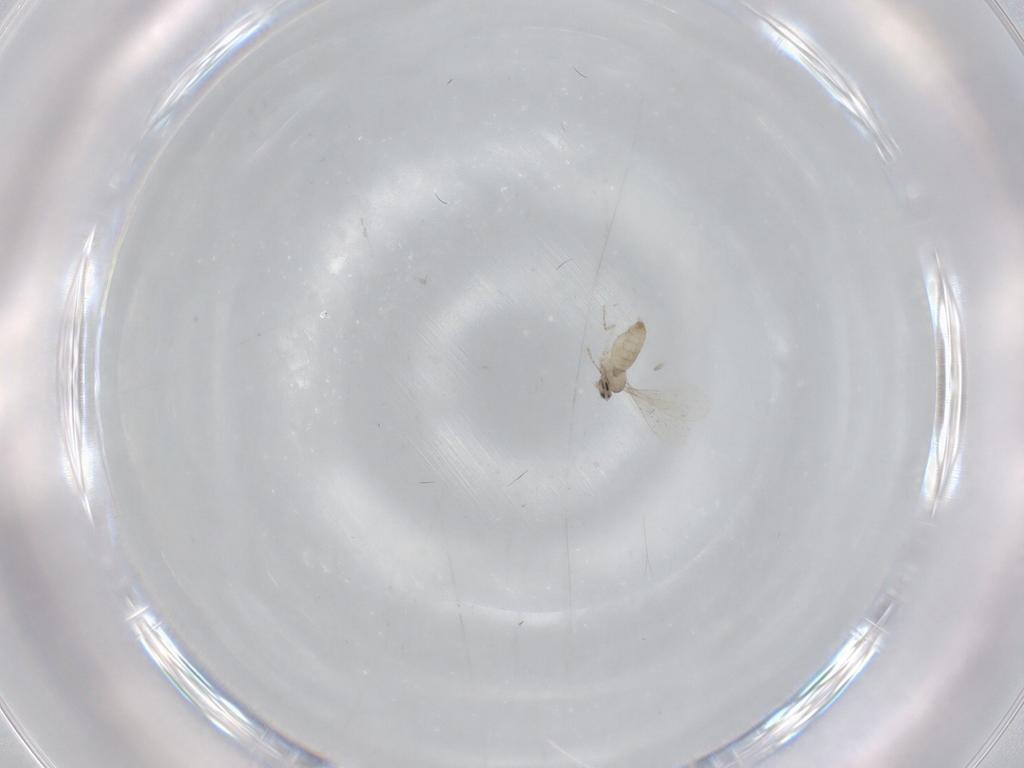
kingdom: Animalia
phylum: Arthropoda
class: Insecta
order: Diptera
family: Cecidomyiidae
